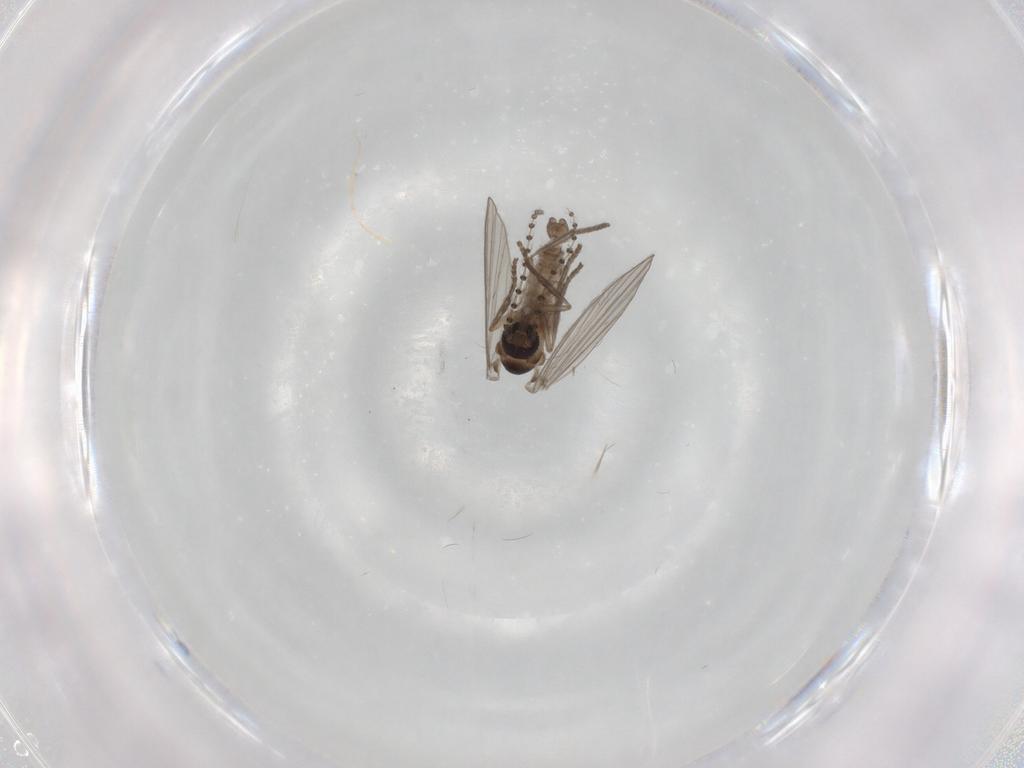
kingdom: Animalia
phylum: Arthropoda
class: Insecta
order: Diptera
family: Psychodidae
